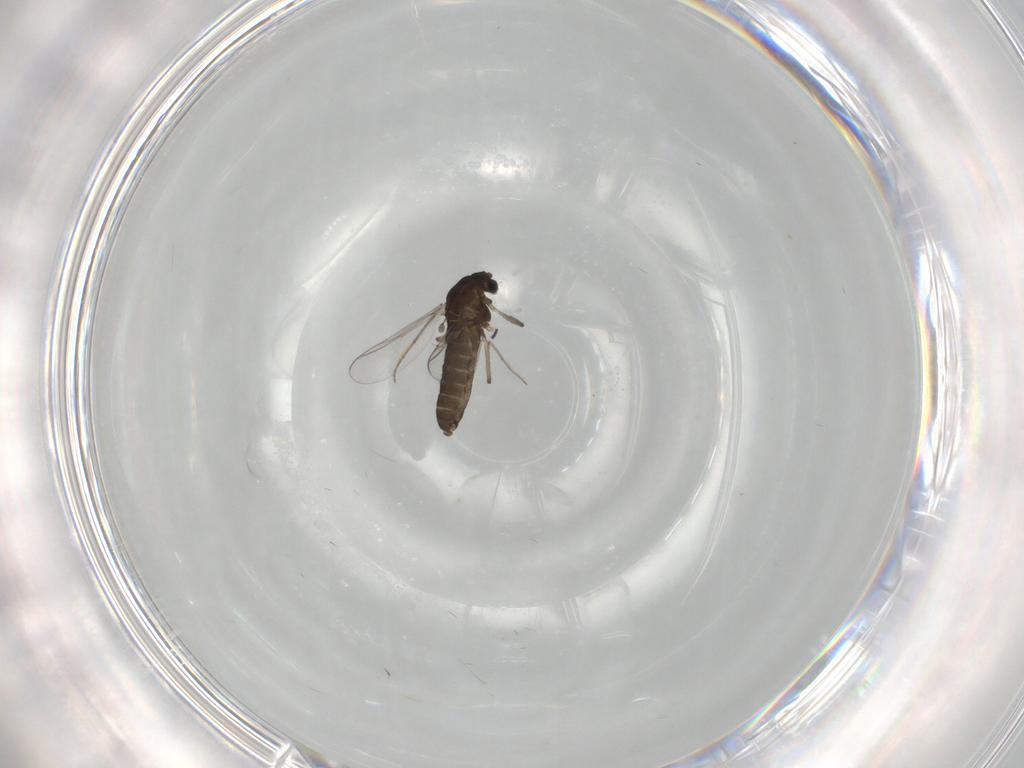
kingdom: Animalia
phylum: Arthropoda
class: Insecta
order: Diptera
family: Chironomidae
